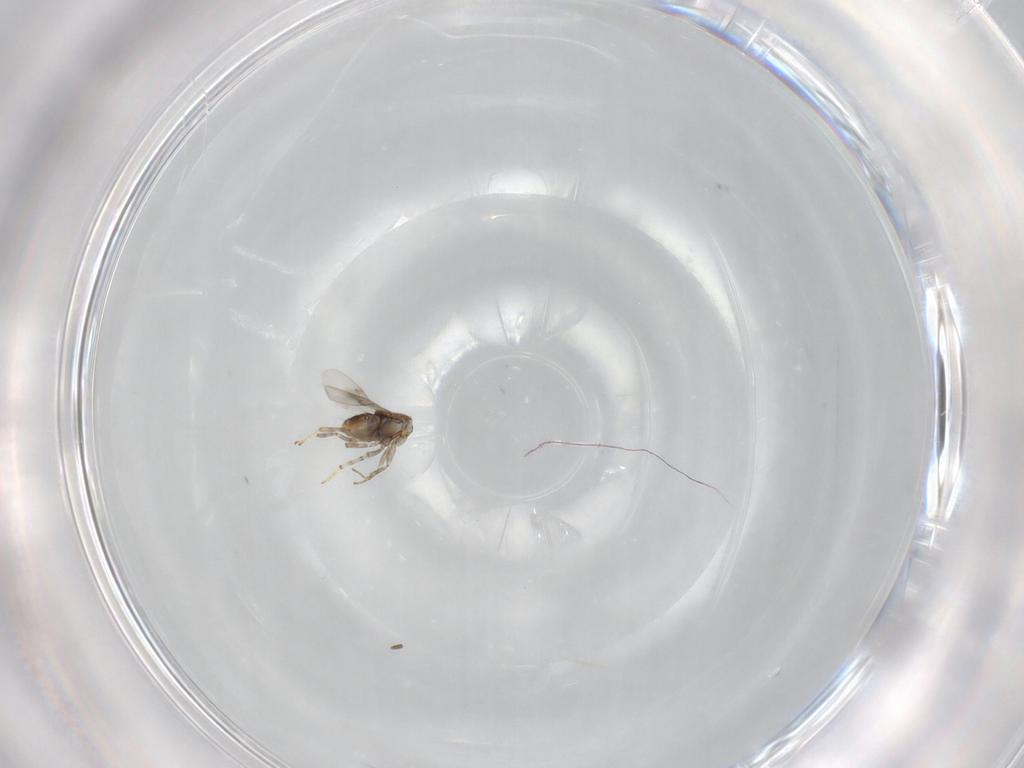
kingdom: Animalia
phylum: Arthropoda
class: Insecta
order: Hymenoptera
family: Encyrtidae
